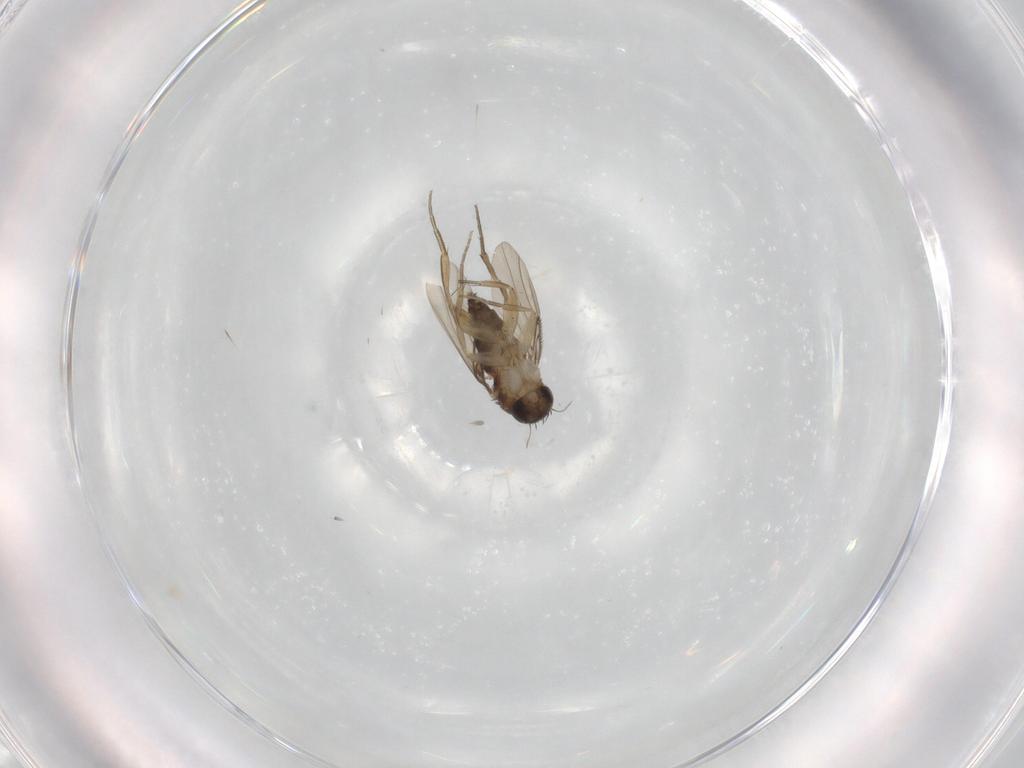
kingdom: Animalia
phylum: Arthropoda
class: Insecta
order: Diptera
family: Phoridae
